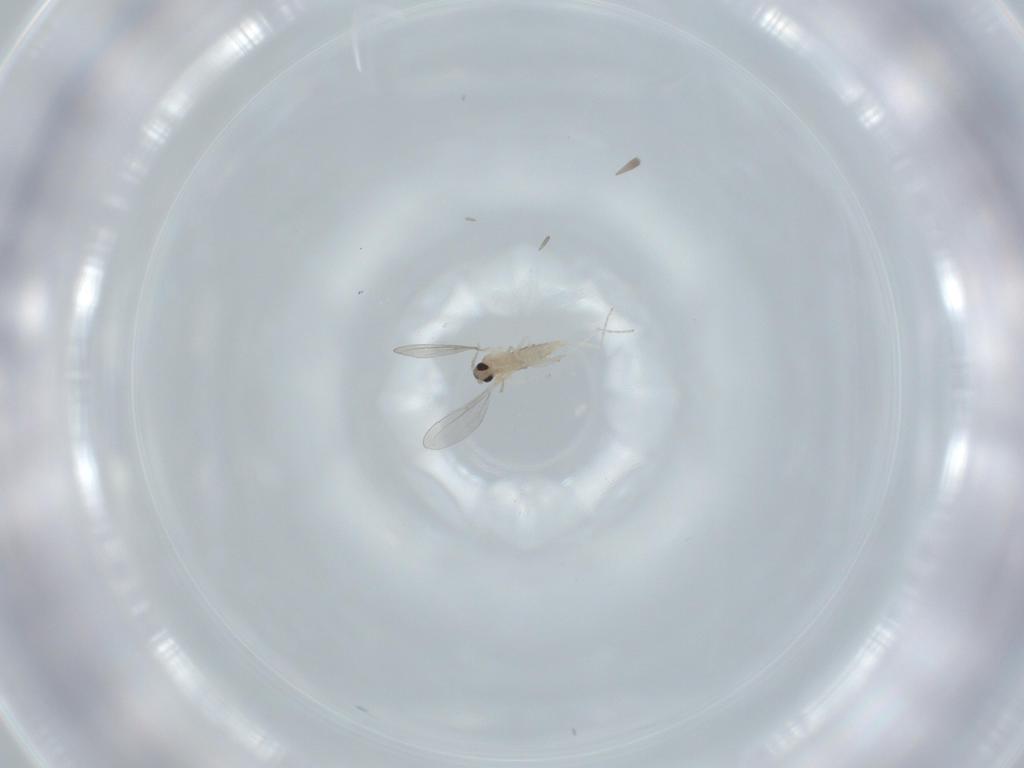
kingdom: Animalia
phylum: Arthropoda
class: Insecta
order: Diptera
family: Cecidomyiidae
